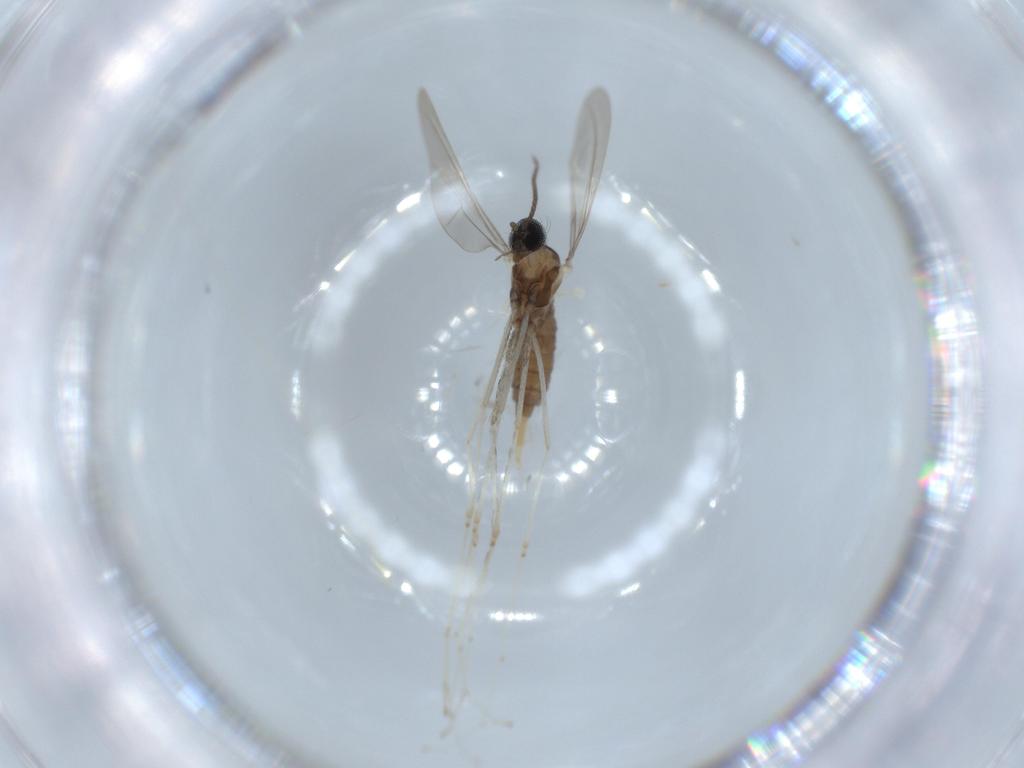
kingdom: Animalia
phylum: Arthropoda
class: Insecta
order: Diptera
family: Cecidomyiidae
